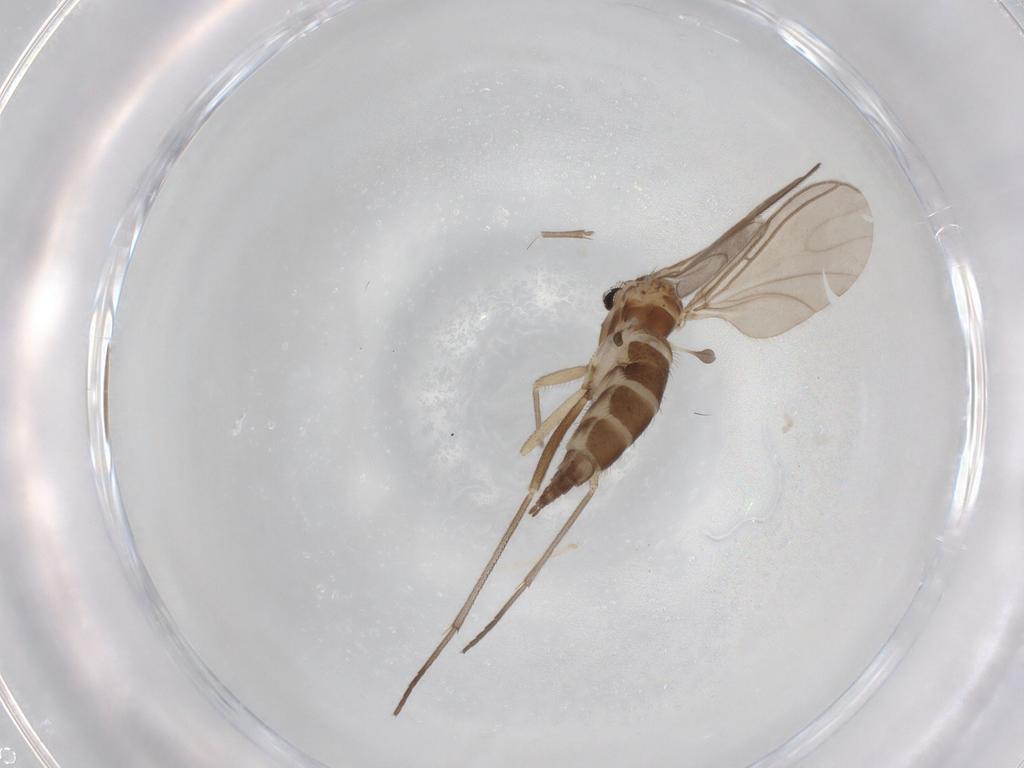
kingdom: Animalia
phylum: Arthropoda
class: Insecta
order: Diptera
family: Sciaridae
